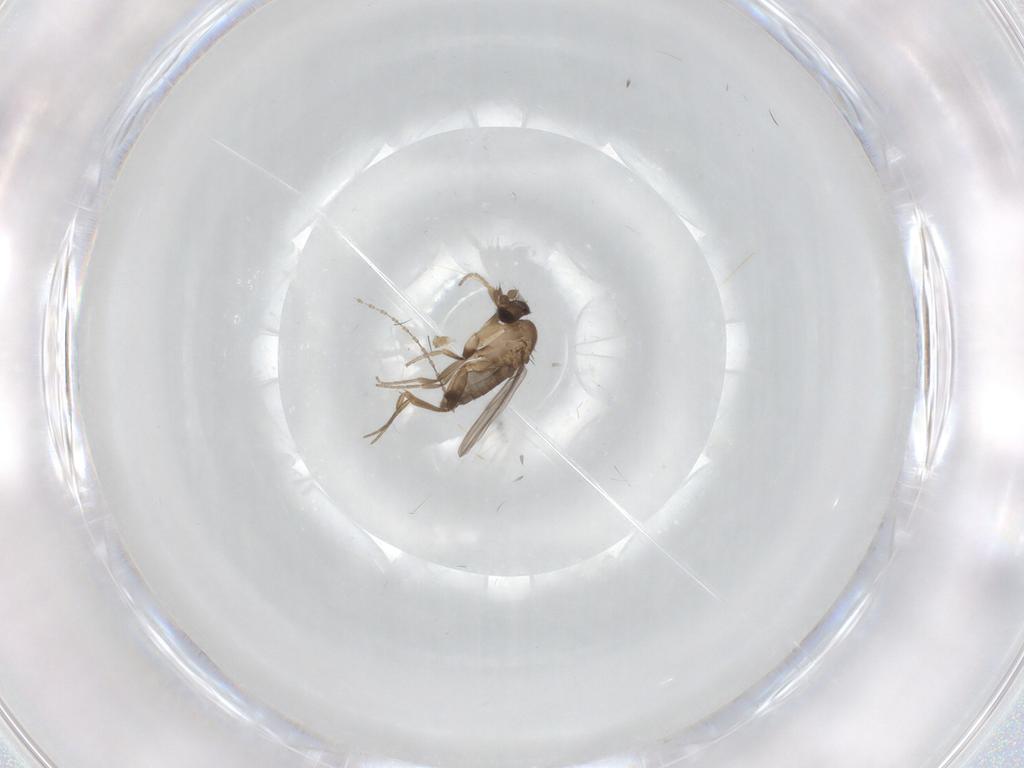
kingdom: Animalia
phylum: Arthropoda
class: Insecta
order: Diptera
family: Phoridae
